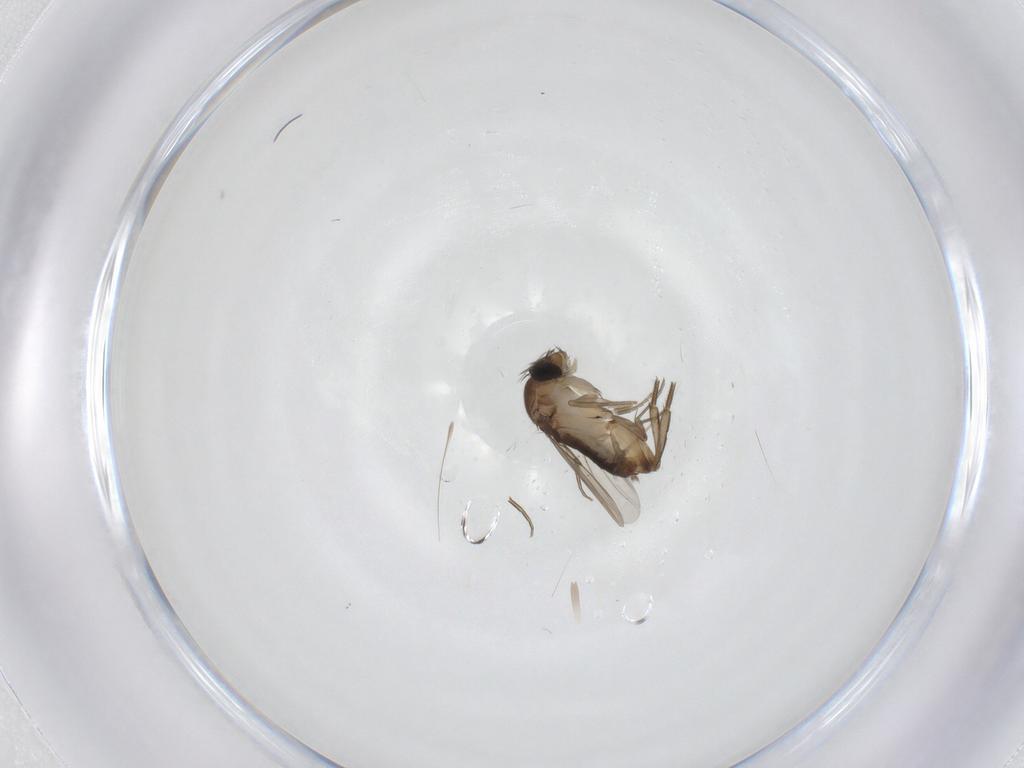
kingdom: Animalia
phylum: Arthropoda
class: Insecta
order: Diptera
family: Phoridae
